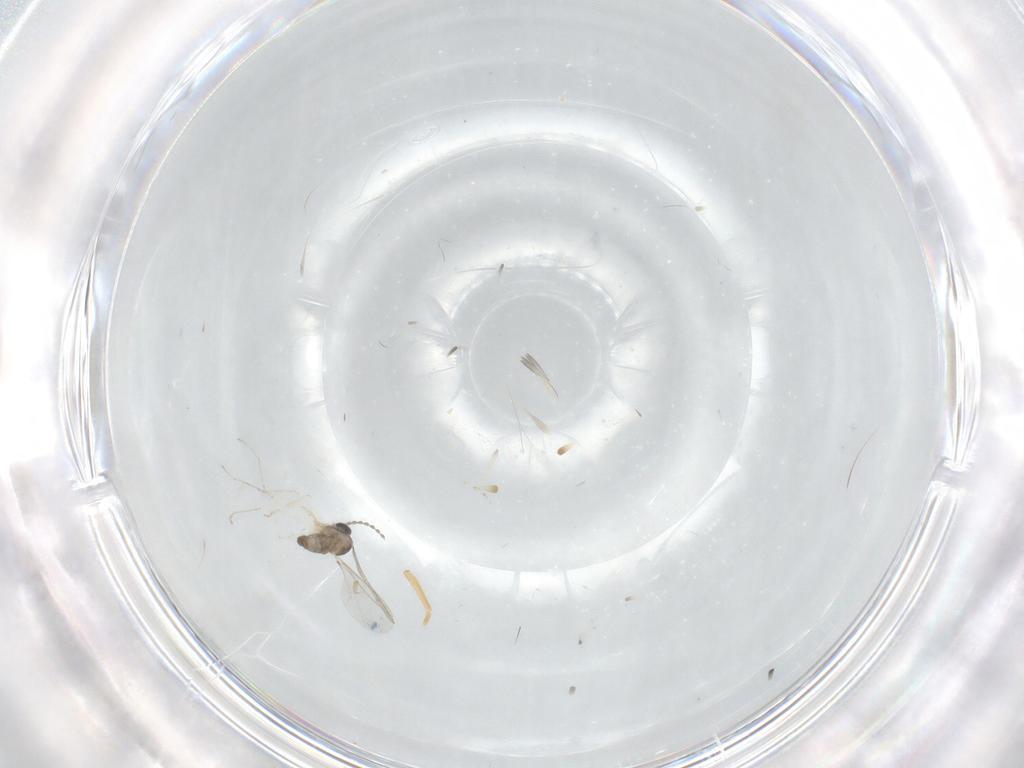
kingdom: Animalia
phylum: Arthropoda
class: Insecta
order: Diptera
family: Cecidomyiidae
